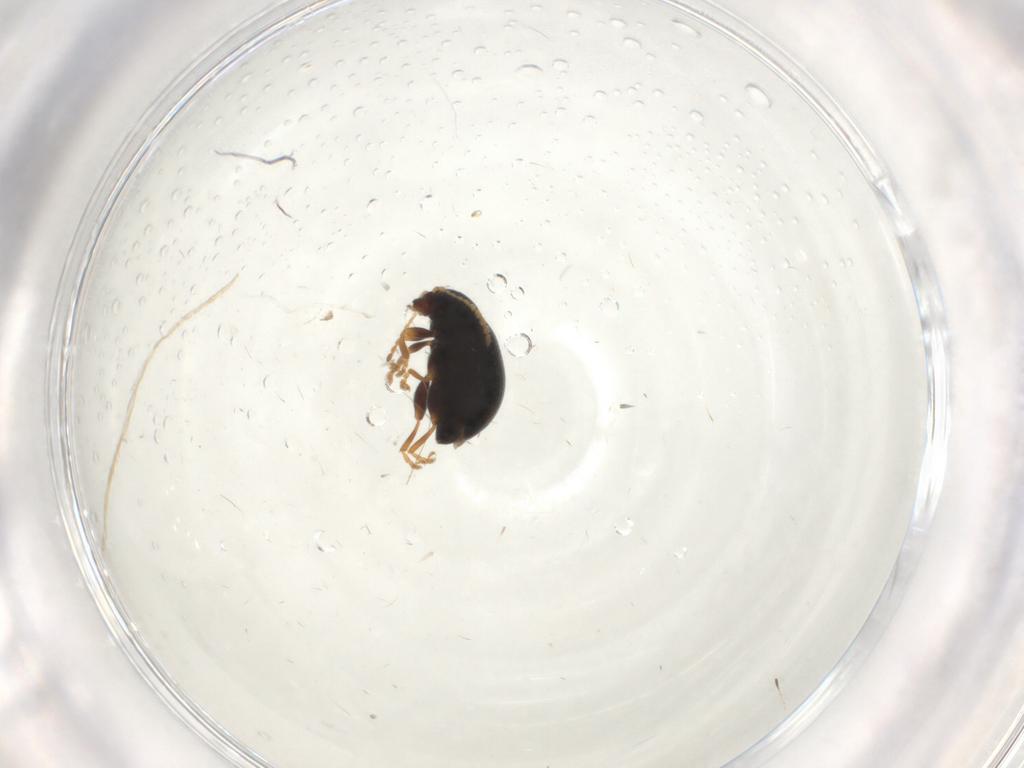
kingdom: Animalia
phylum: Arthropoda
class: Insecta
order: Coleoptera
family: Chrysomelidae
